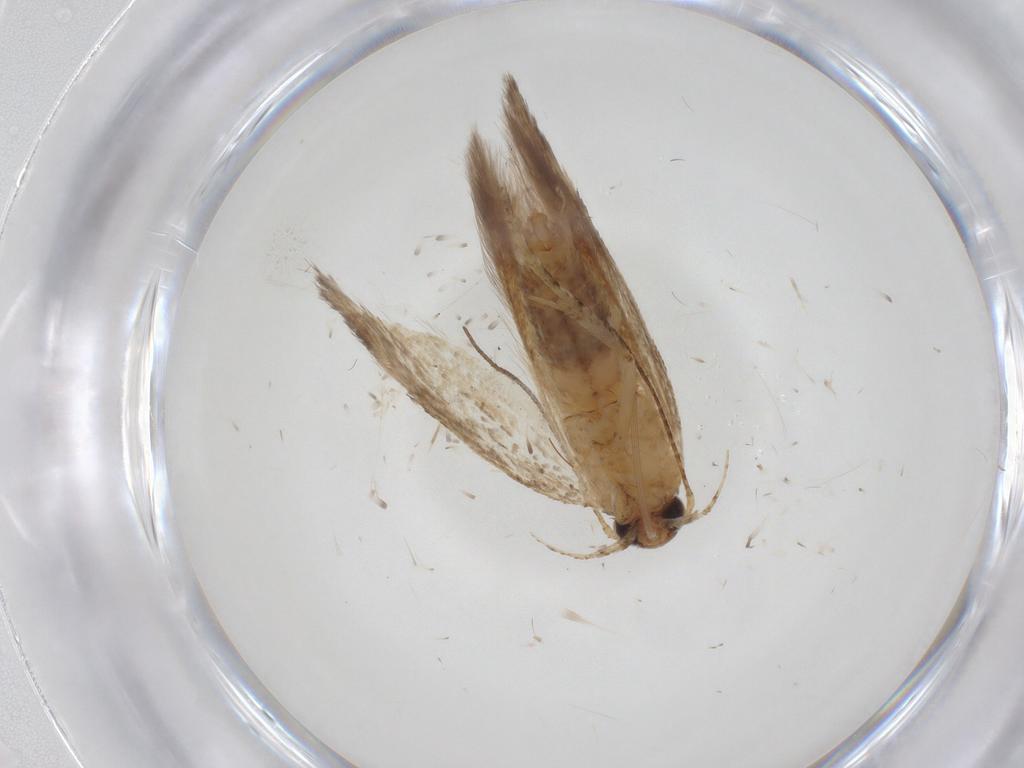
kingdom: Animalia
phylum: Arthropoda
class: Insecta
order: Lepidoptera
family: Gelechiidae
